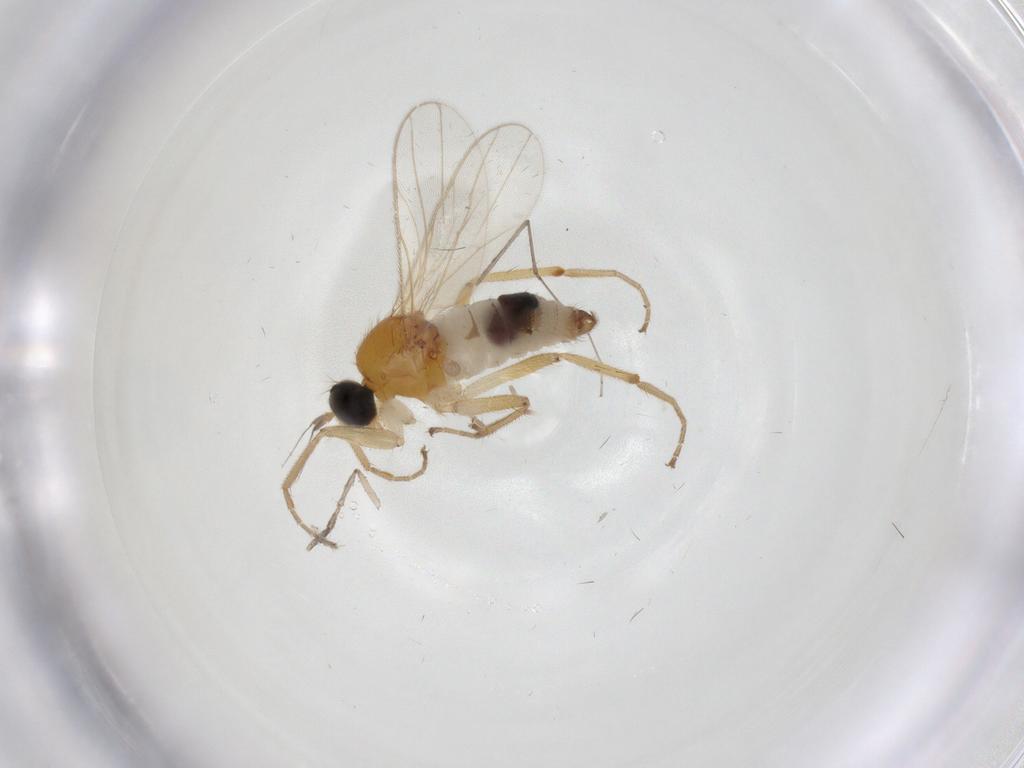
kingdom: Animalia
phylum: Arthropoda
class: Insecta
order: Diptera
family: Hybotidae
